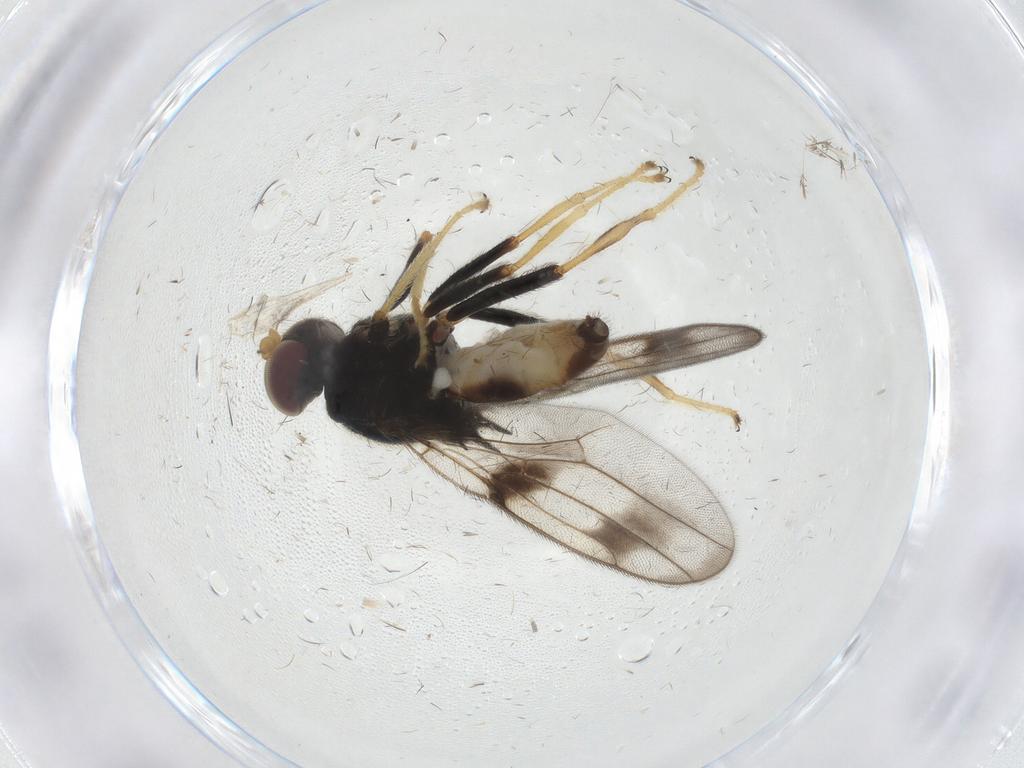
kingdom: Animalia
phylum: Arthropoda
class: Insecta
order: Diptera
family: Chloropidae
